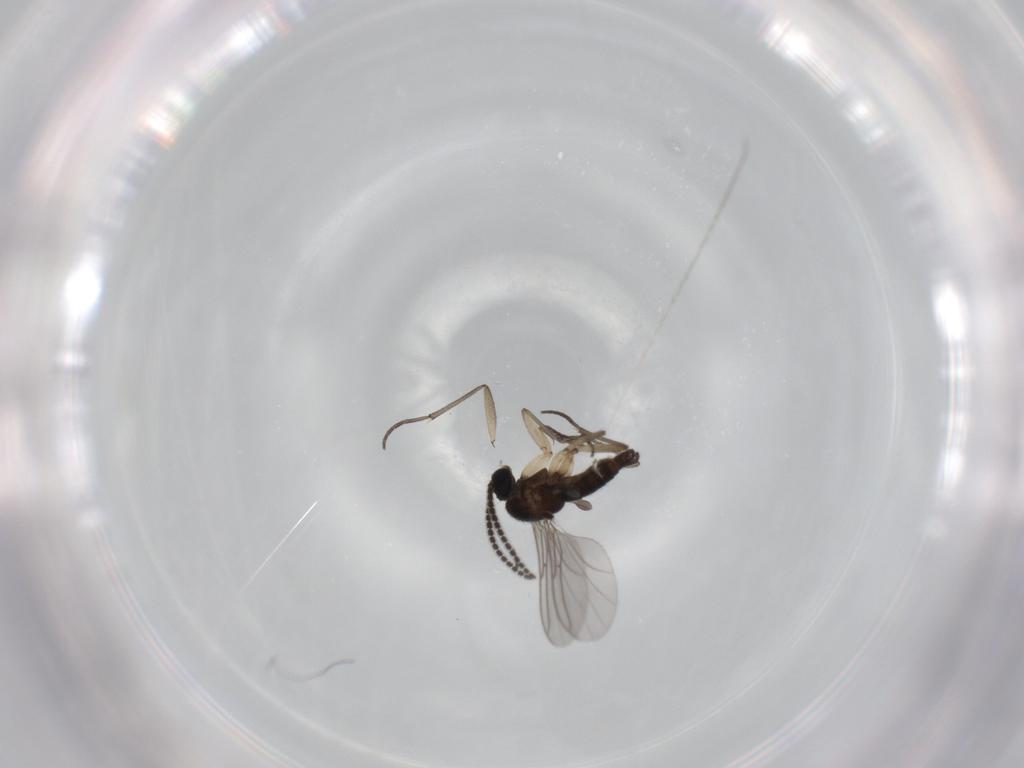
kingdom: Animalia
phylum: Arthropoda
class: Insecta
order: Diptera
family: Sciaridae
